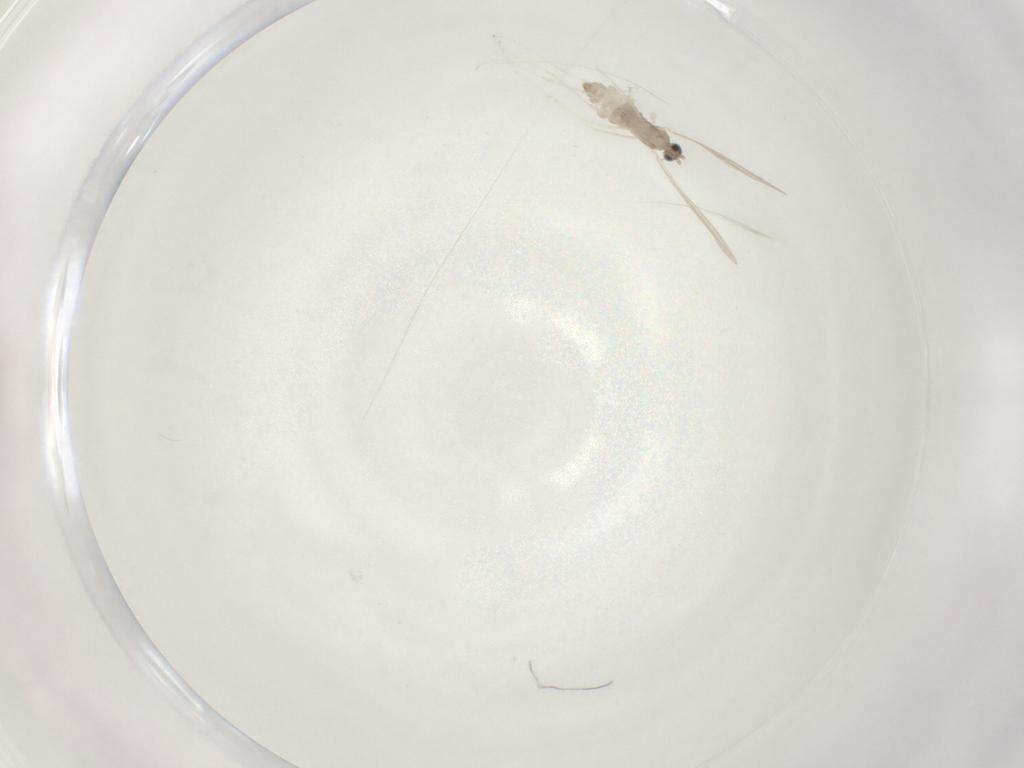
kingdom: Animalia
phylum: Arthropoda
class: Insecta
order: Diptera
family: Cecidomyiidae
